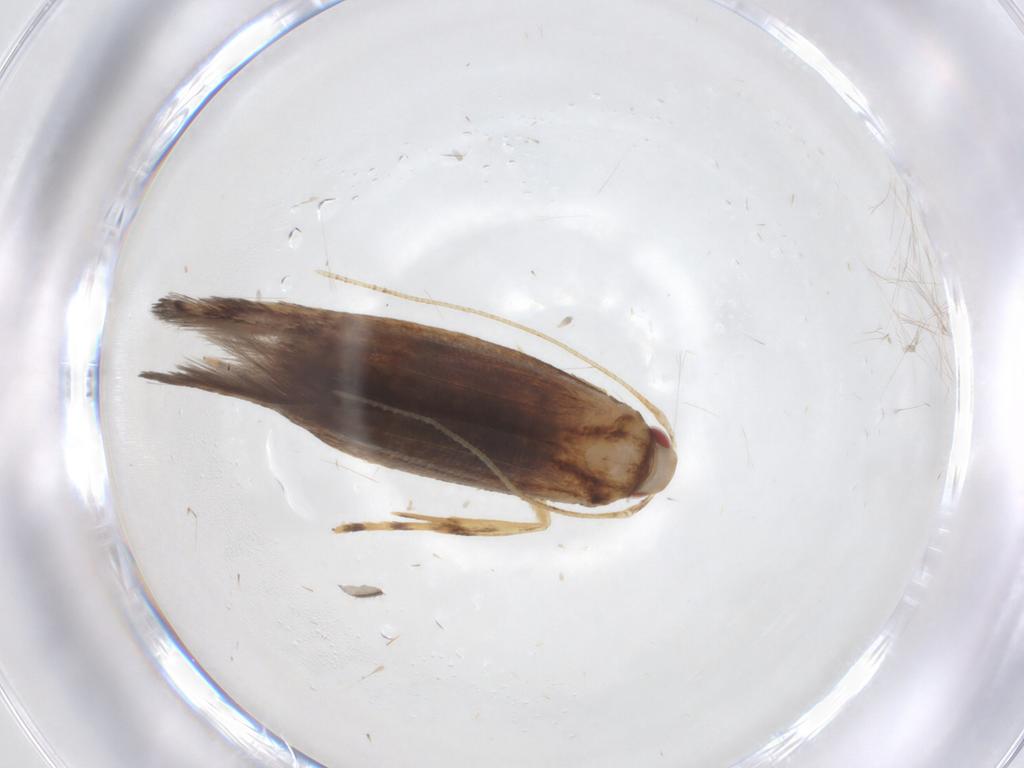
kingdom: Animalia
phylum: Arthropoda
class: Insecta
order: Lepidoptera
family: Cosmopterigidae
